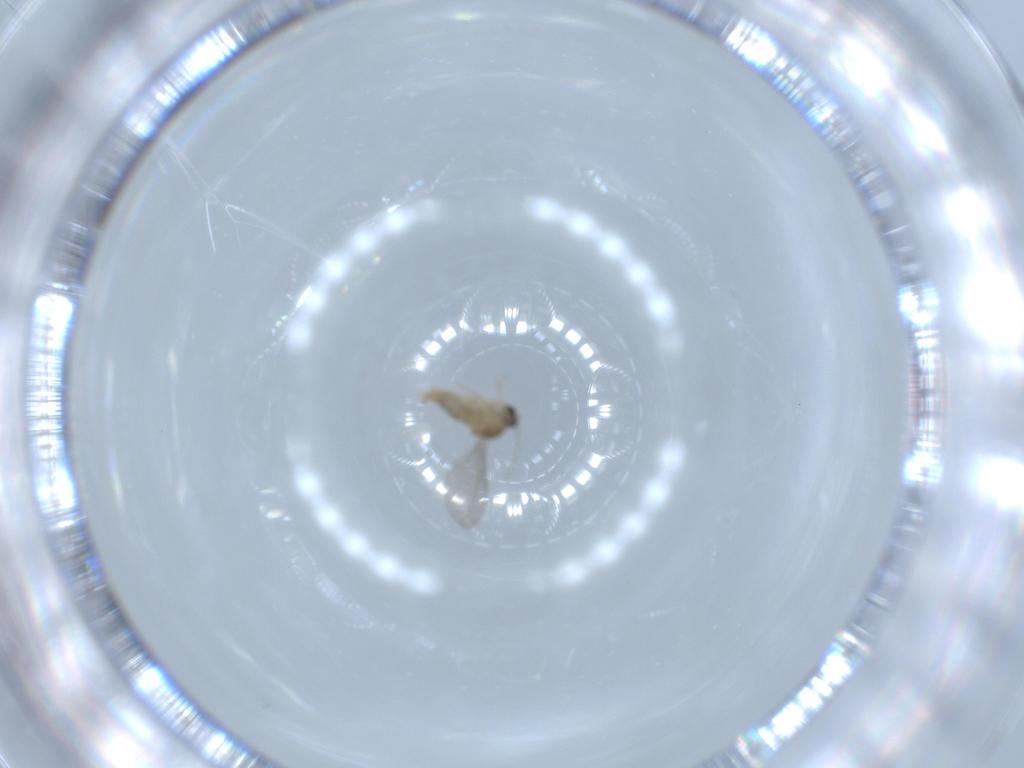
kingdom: Animalia
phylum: Arthropoda
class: Insecta
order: Diptera
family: Cecidomyiidae
